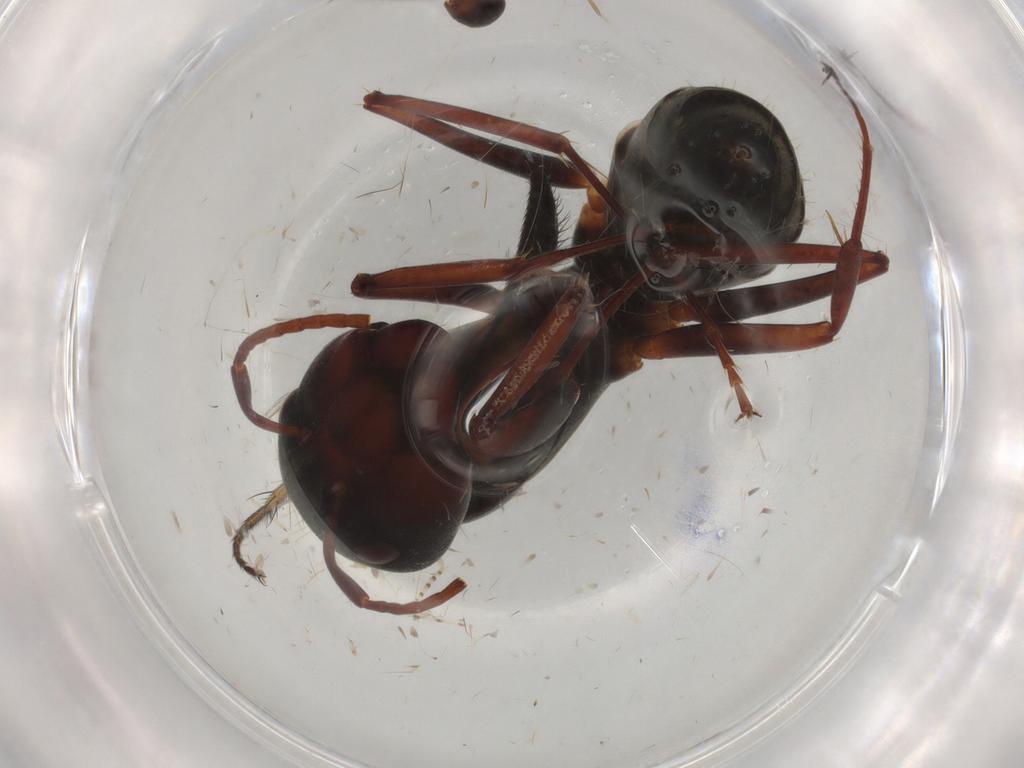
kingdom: Animalia
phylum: Arthropoda
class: Insecta
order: Hymenoptera
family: Formicidae
